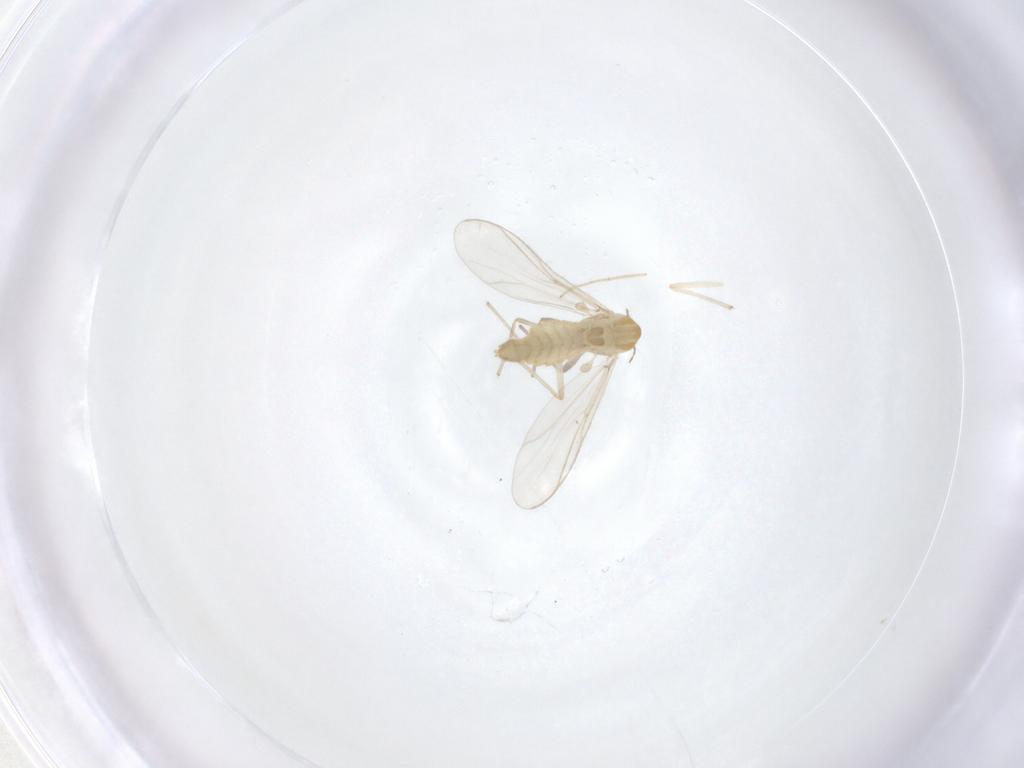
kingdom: Animalia
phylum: Arthropoda
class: Insecta
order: Diptera
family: Chironomidae
